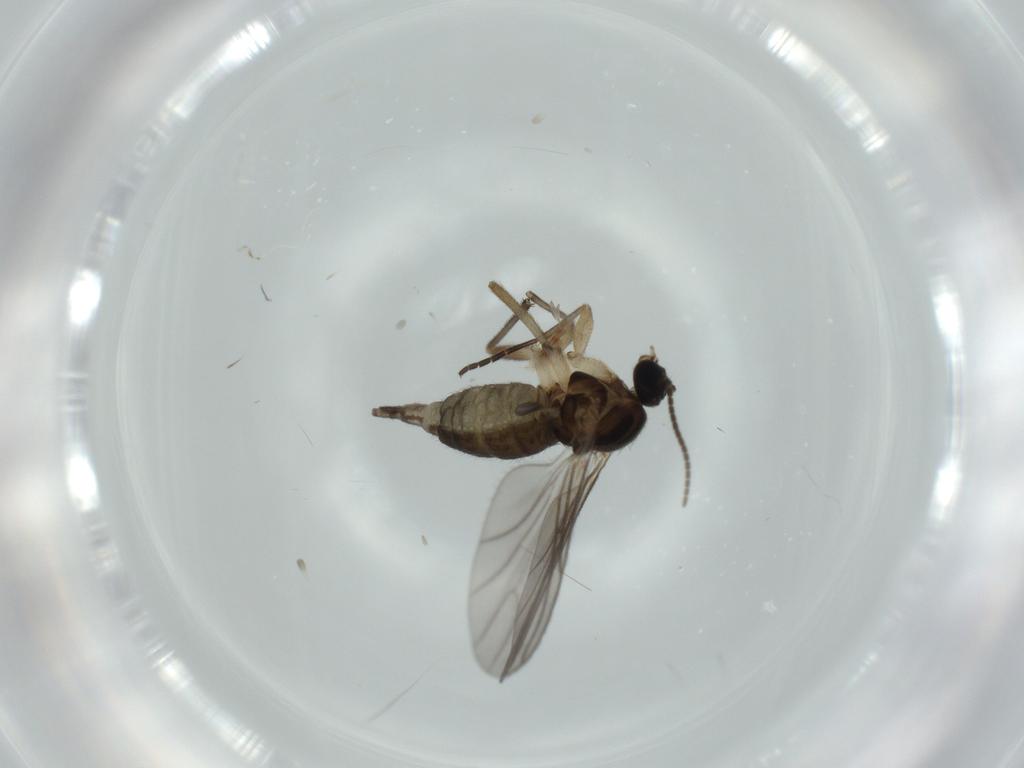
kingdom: Animalia
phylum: Arthropoda
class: Insecta
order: Diptera
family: Sciaridae
